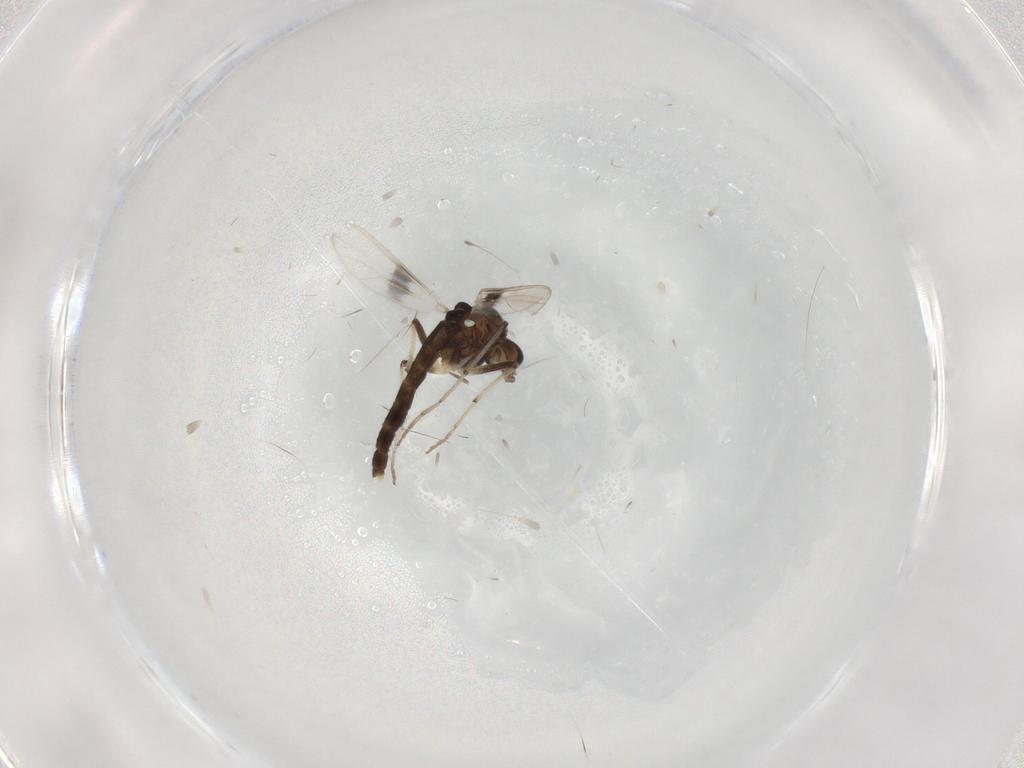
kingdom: Animalia
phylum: Arthropoda
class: Insecta
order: Diptera
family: Chironomidae
